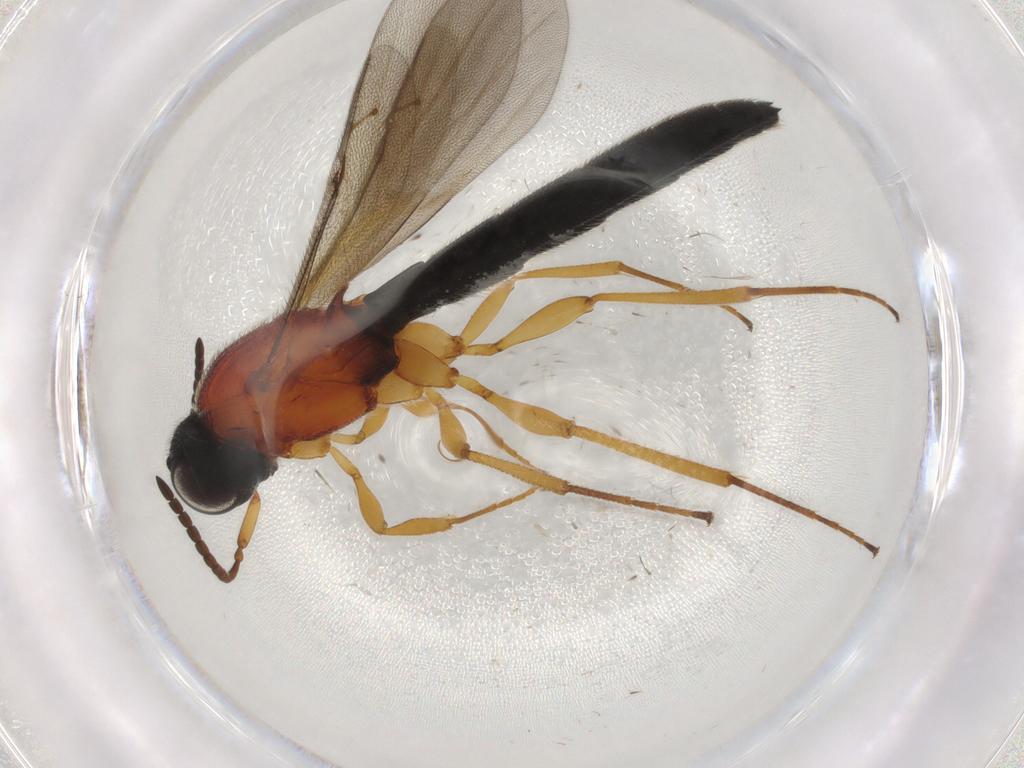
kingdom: Animalia
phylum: Arthropoda
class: Insecta
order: Hymenoptera
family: Scelionidae
